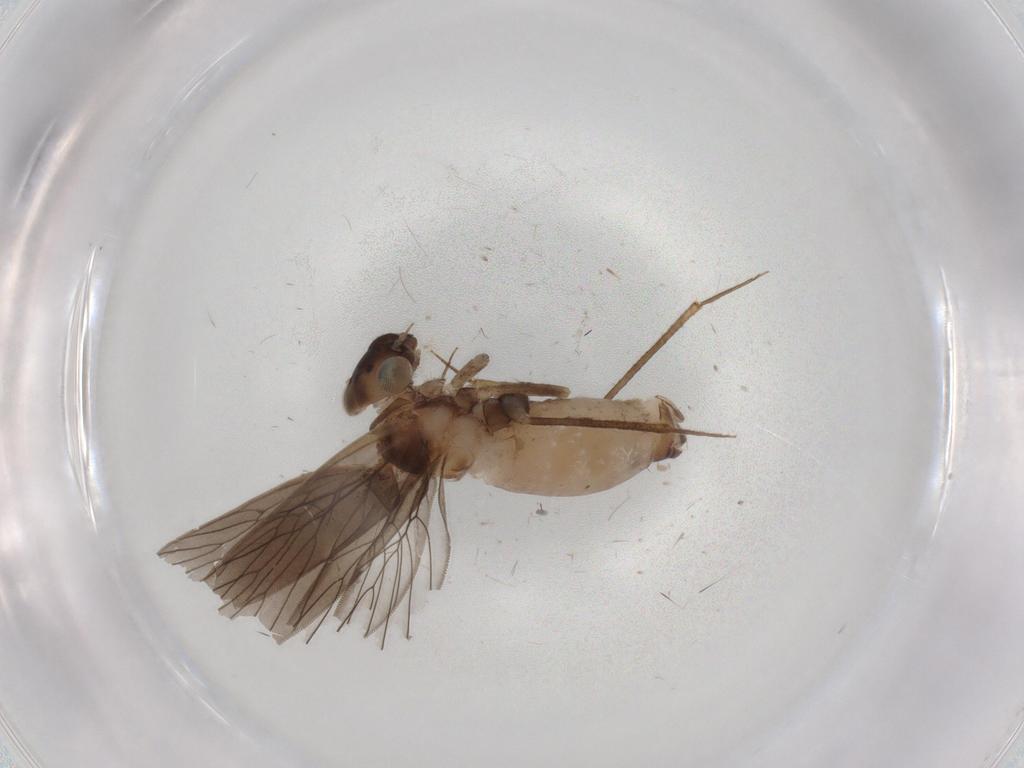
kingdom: Animalia
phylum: Arthropoda
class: Insecta
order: Psocodea
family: Lepidopsocidae
